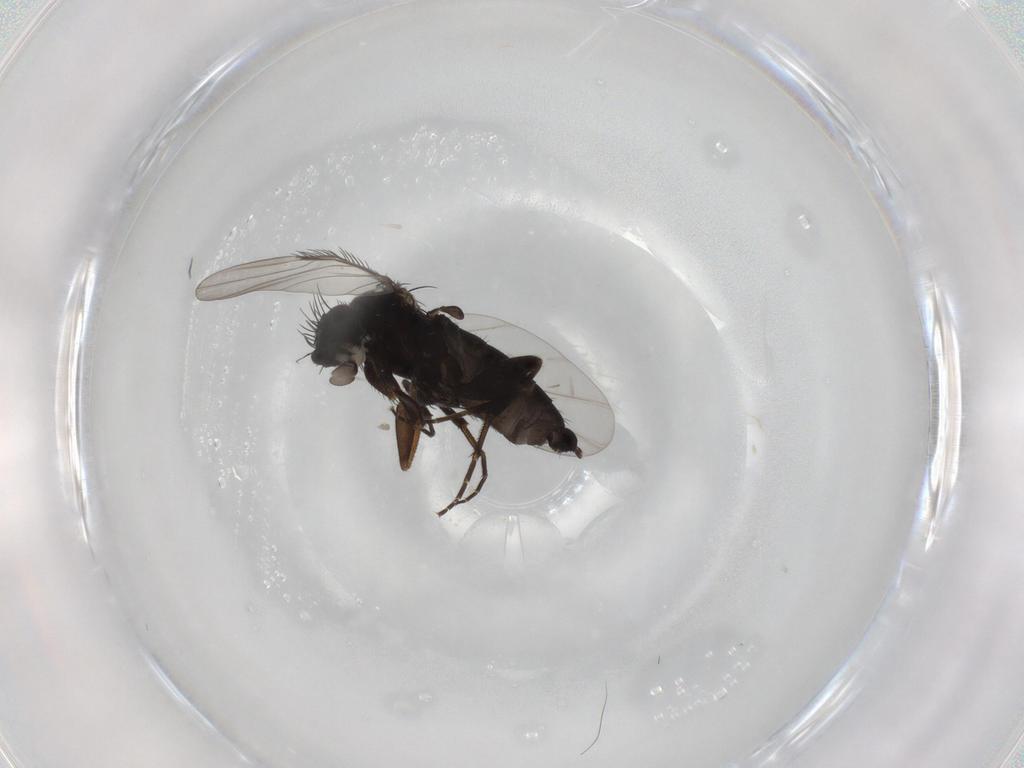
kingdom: Animalia
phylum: Arthropoda
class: Insecta
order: Diptera
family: Phoridae
